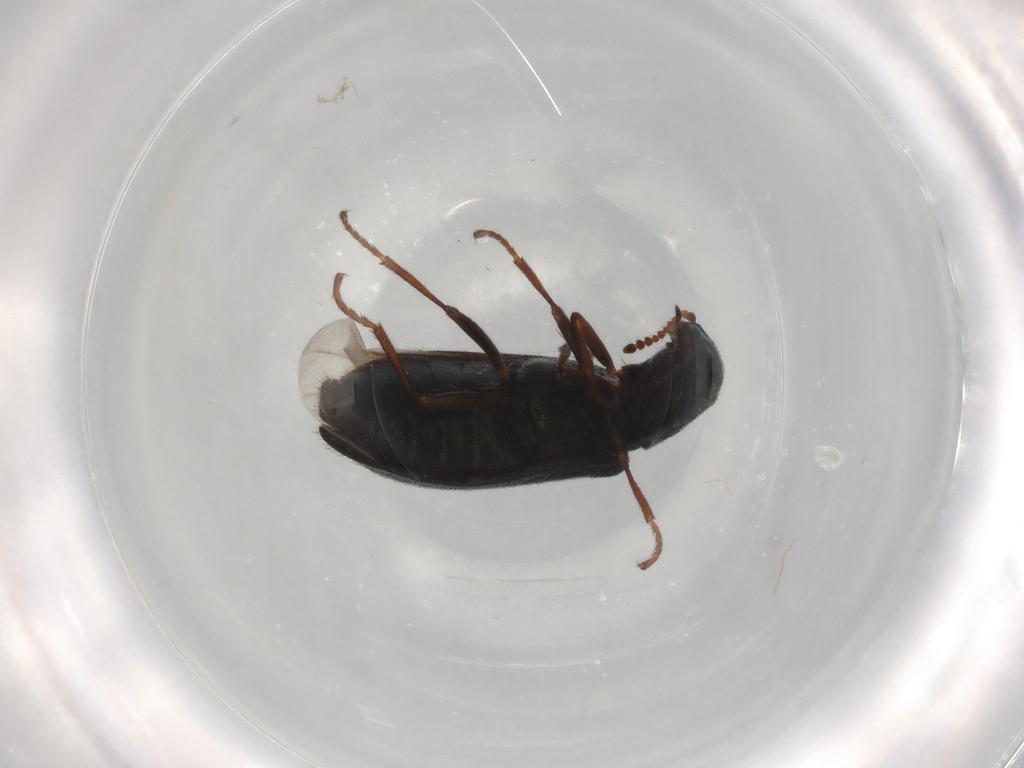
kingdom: Animalia
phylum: Arthropoda
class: Insecta
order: Coleoptera
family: Melyridae
